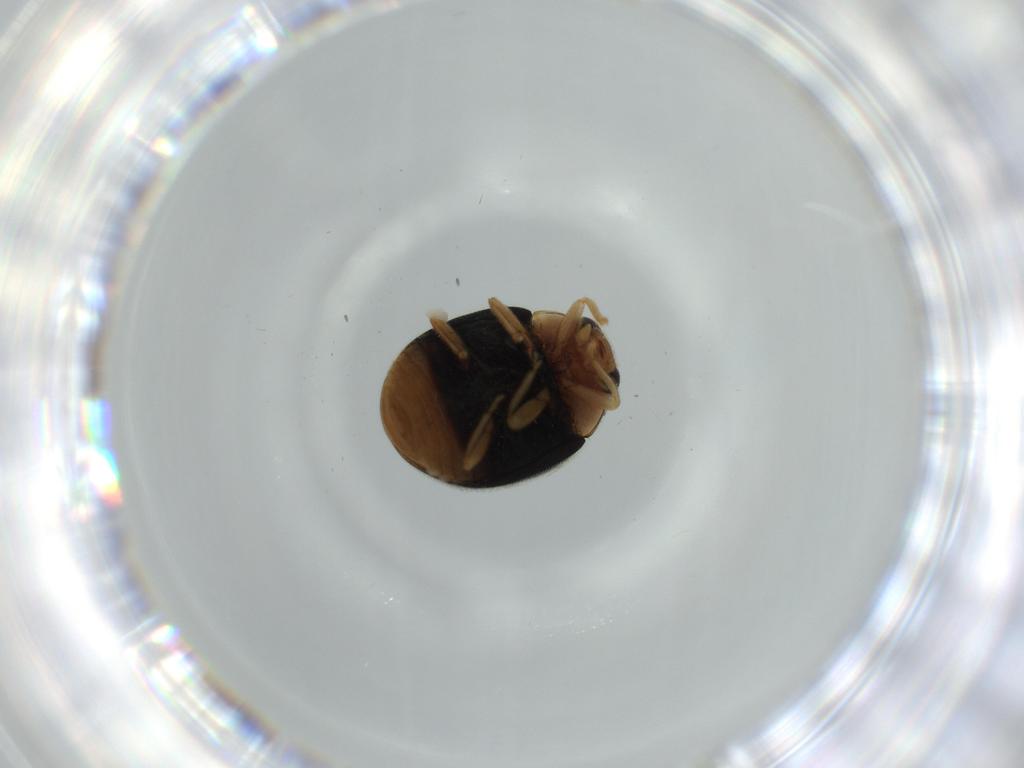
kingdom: Animalia
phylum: Arthropoda
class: Insecta
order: Coleoptera
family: Coccinellidae
